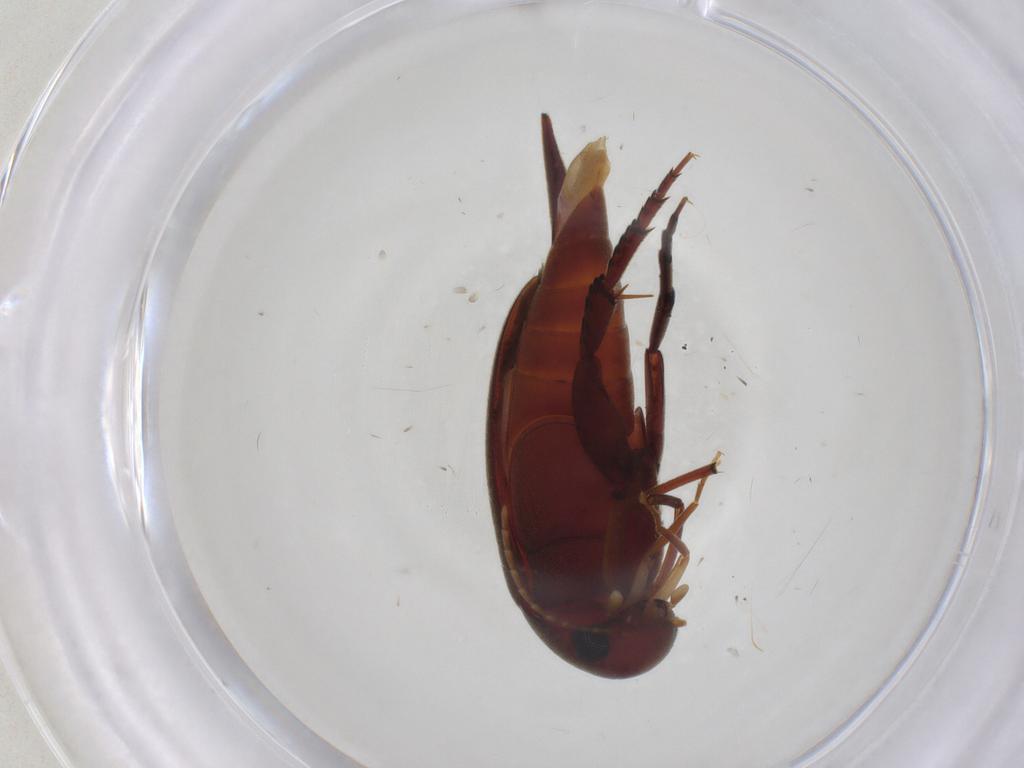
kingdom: Animalia
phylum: Arthropoda
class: Insecta
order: Coleoptera
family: Mordellidae
